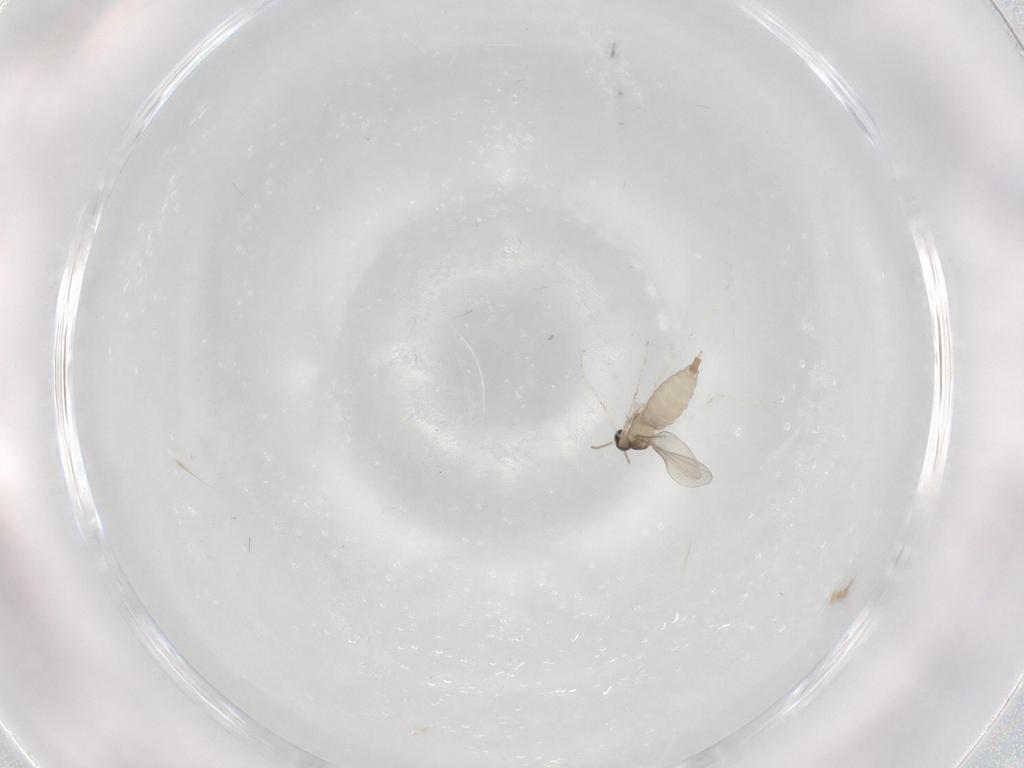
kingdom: Animalia
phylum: Arthropoda
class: Insecta
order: Diptera
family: Cecidomyiidae
